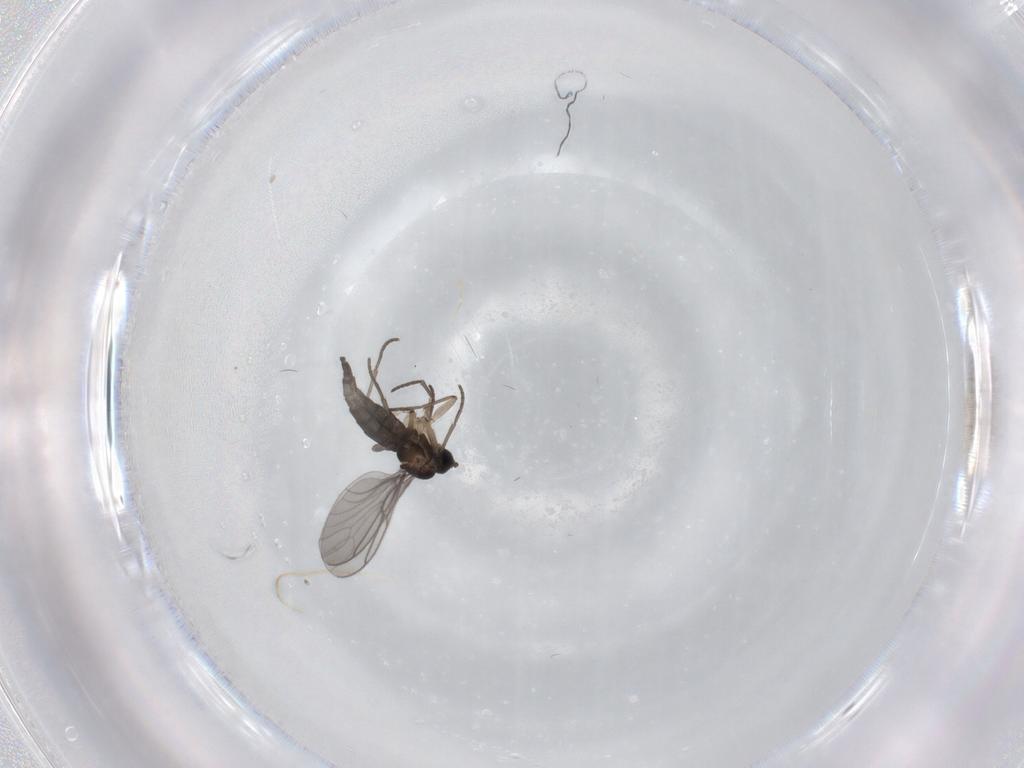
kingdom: Animalia
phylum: Arthropoda
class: Insecta
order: Diptera
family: Sciaridae
